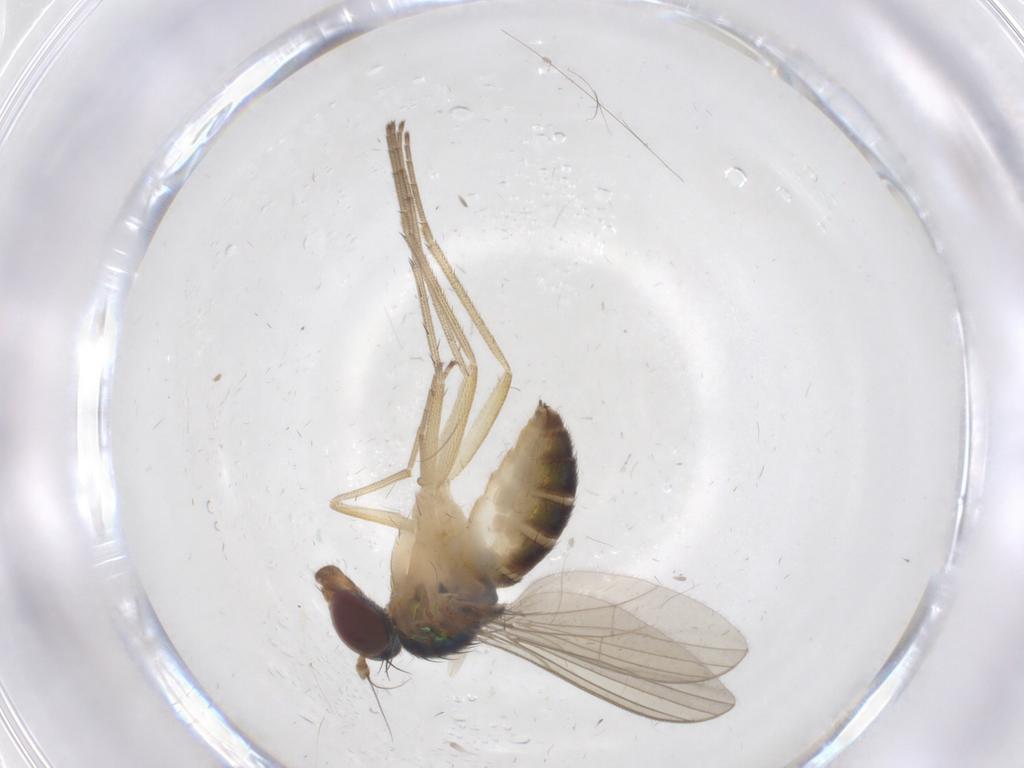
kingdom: Animalia
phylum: Arthropoda
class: Insecta
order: Diptera
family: Dolichopodidae
